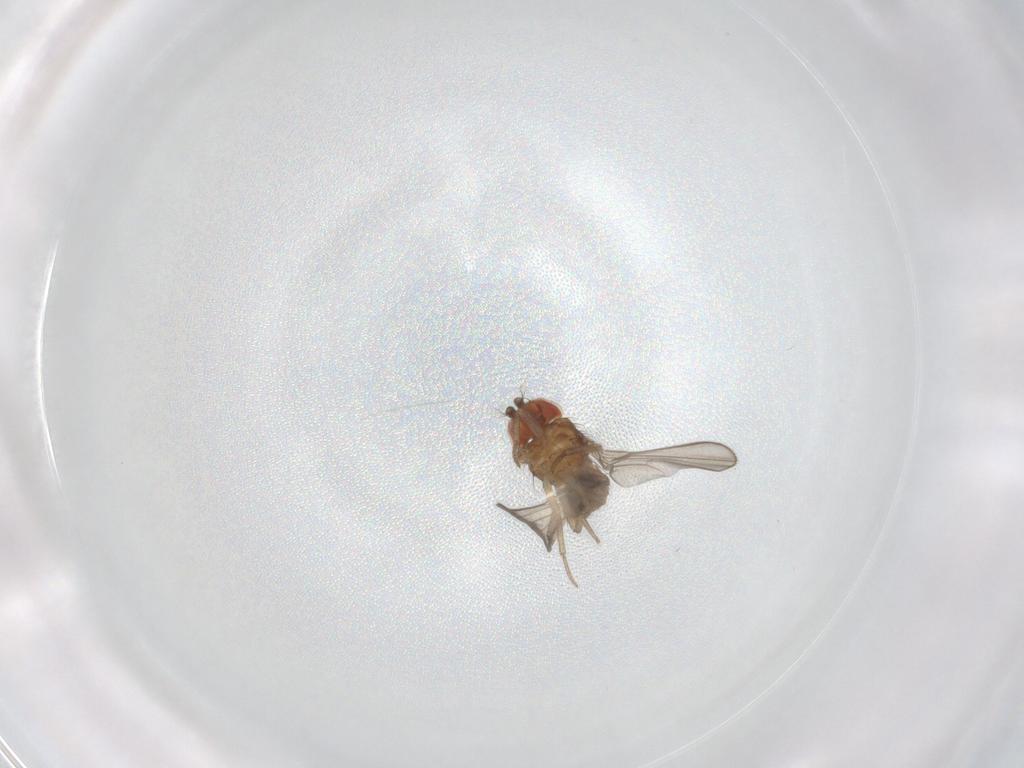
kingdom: Animalia
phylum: Arthropoda
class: Insecta
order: Diptera
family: Drosophilidae
